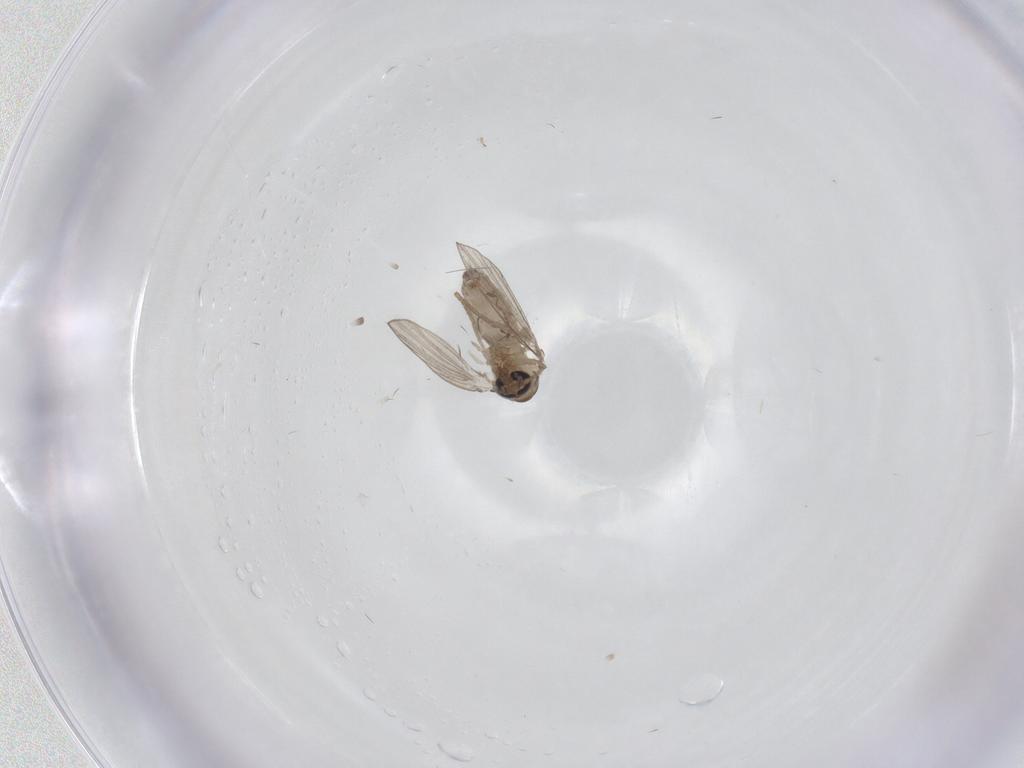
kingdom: Animalia
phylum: Arthropoda
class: Insecta
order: Diptera
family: Psychodidae
